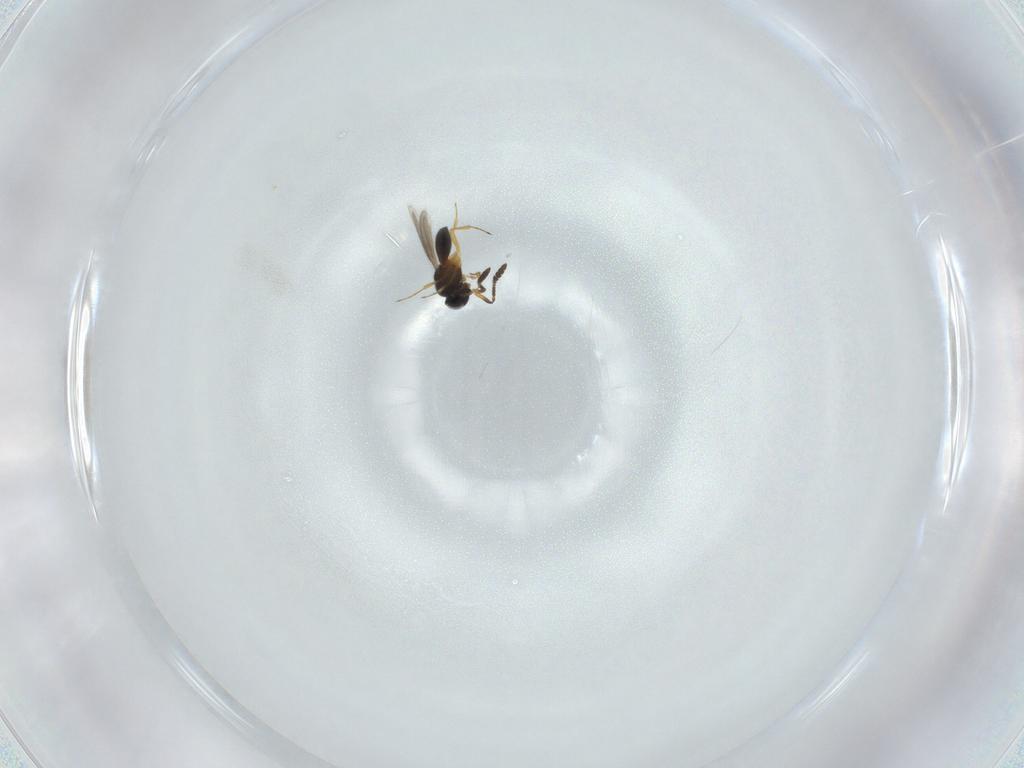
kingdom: Animalia
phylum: Arthropoda
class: Insecta
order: Hymenoptera
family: Scelionidae
